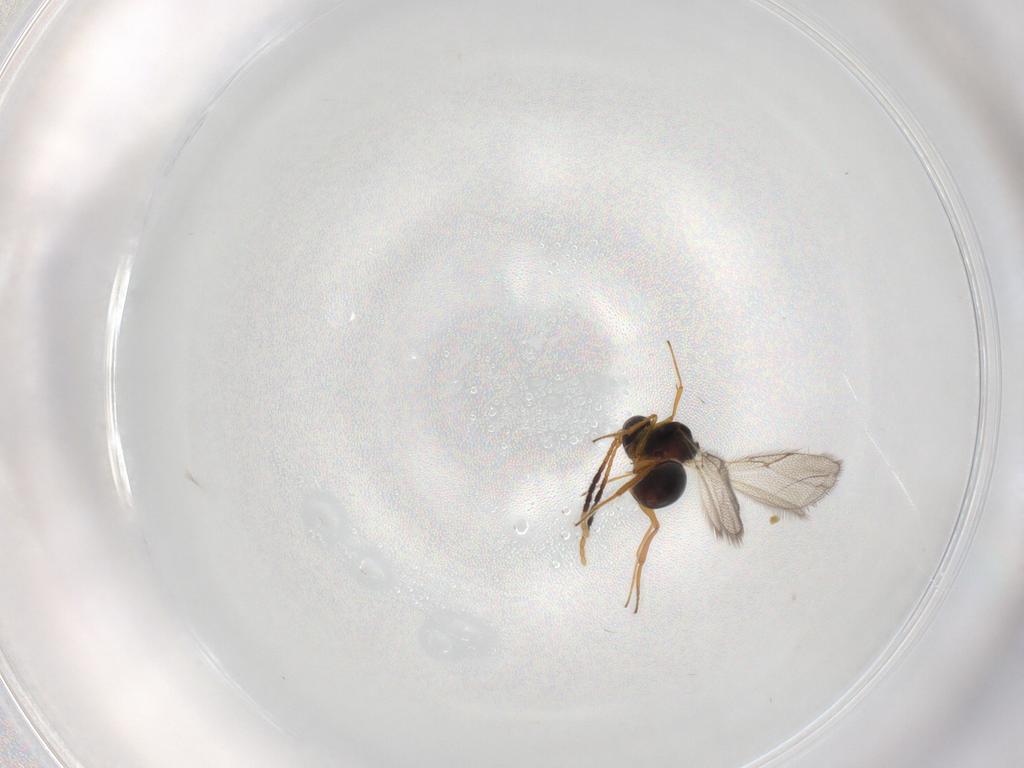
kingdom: Animalia
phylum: Arthropoda
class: Insecta
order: Hymenoptera
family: Figitidae
